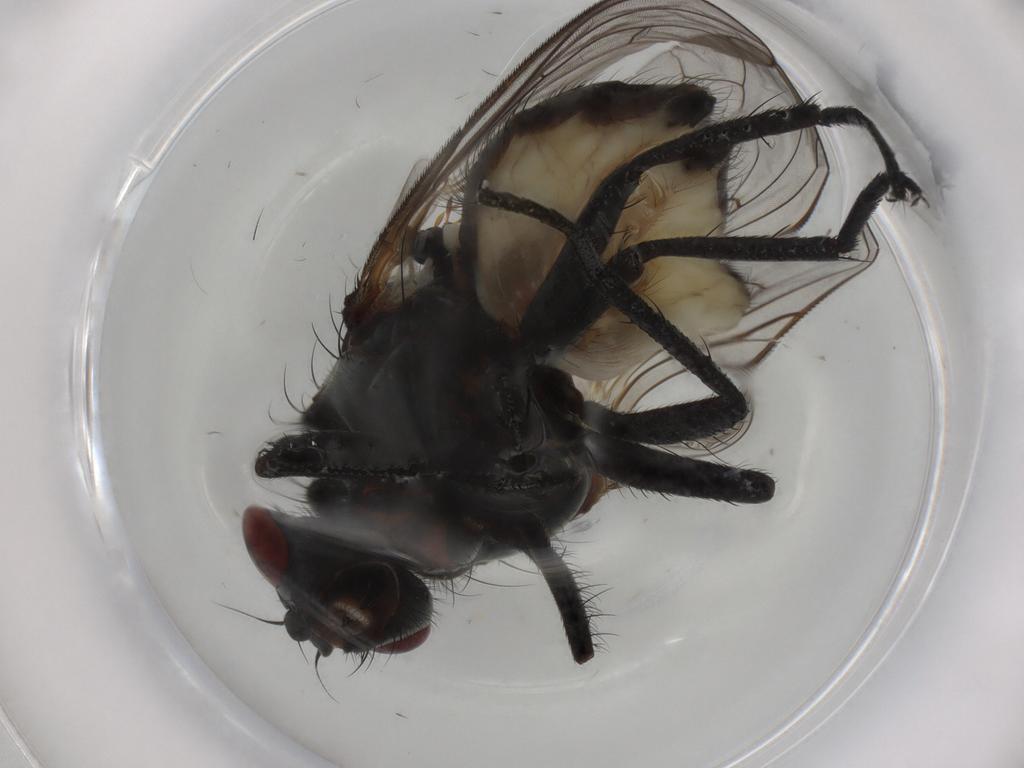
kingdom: Animalia
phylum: Arthropoda
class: Insecta
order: Diptera
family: Anthomyiidae
